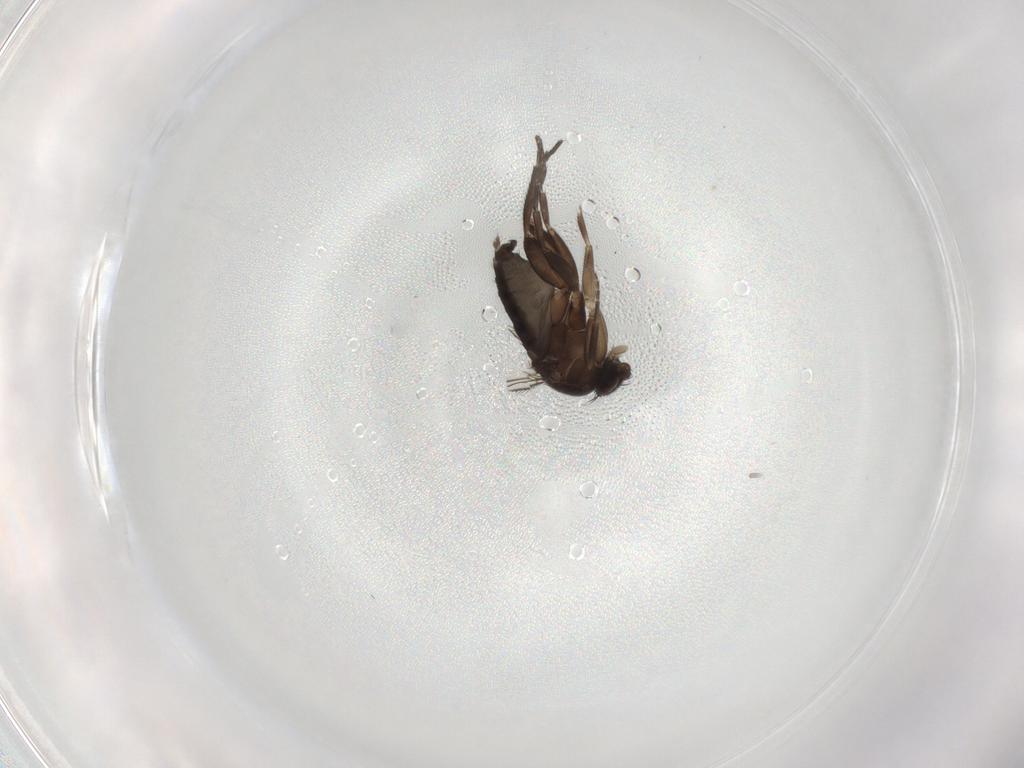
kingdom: Animalia
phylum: Arthropoda
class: Insecta
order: Diptera
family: Phoridae
